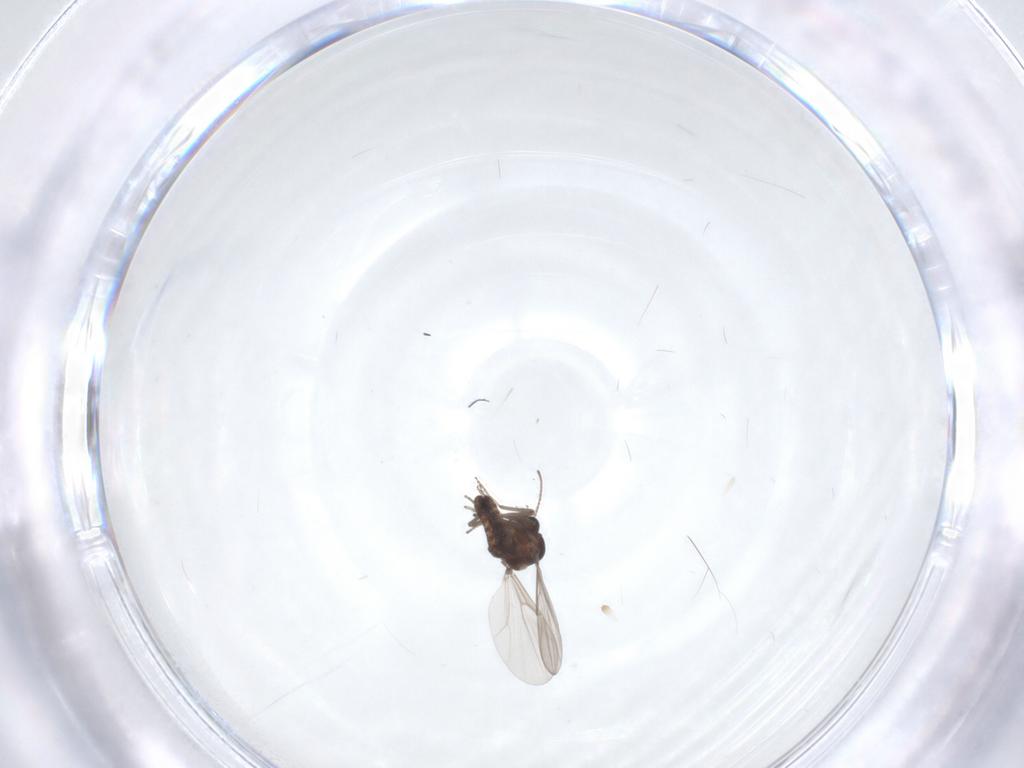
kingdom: Animalia
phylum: Arthropoda
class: Insecta
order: Diptera
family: Ceratopogonidae
